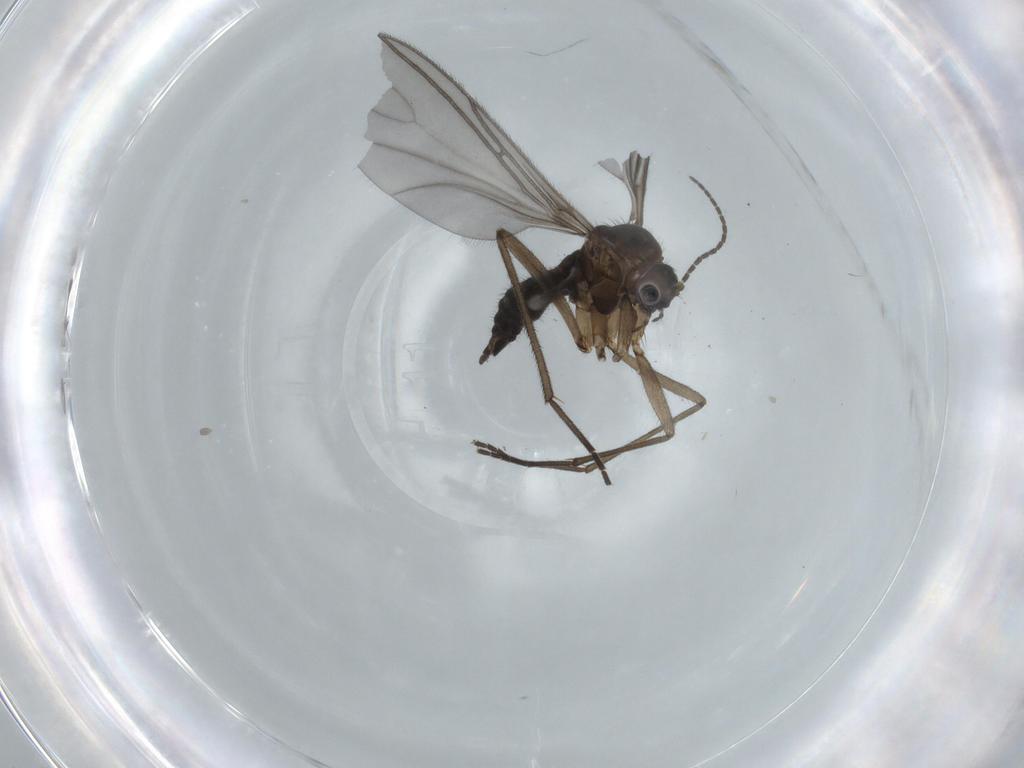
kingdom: Animalia
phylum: Arthropoda
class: Insecta
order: Diptera
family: Sciaridae
